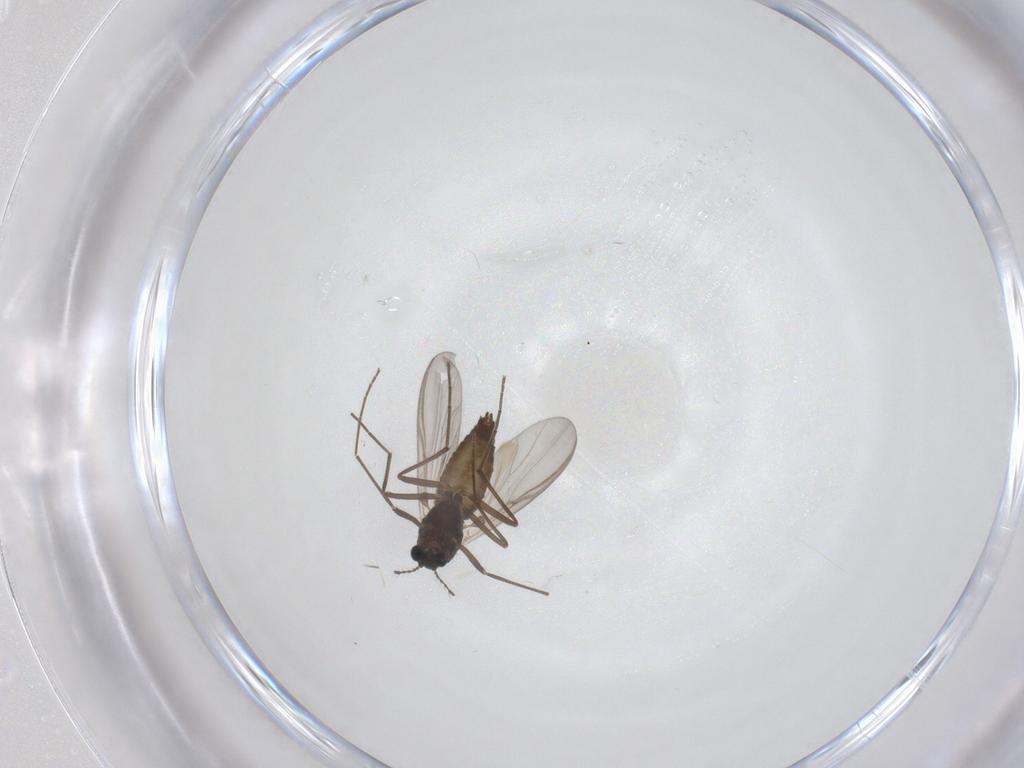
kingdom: Animalia
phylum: Arthropoda
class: Insecta
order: Diptera
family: Chironomidae
